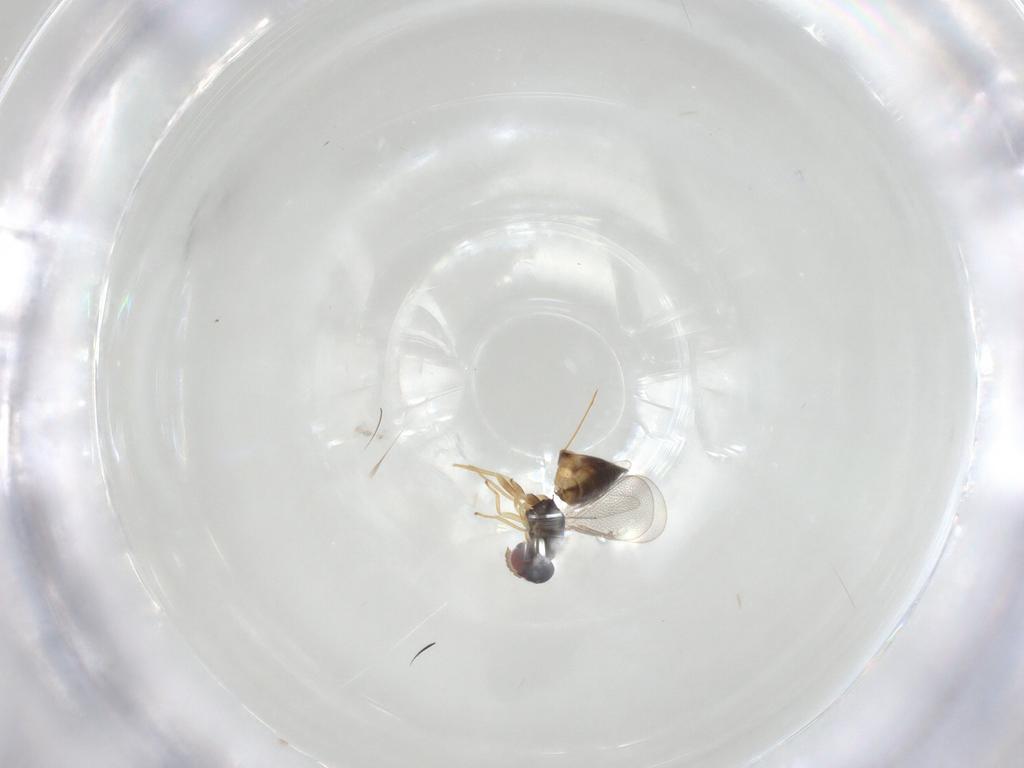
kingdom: Animalia
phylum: Arthropoda
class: Insecta
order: Hymenoptera
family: Eulophidae
